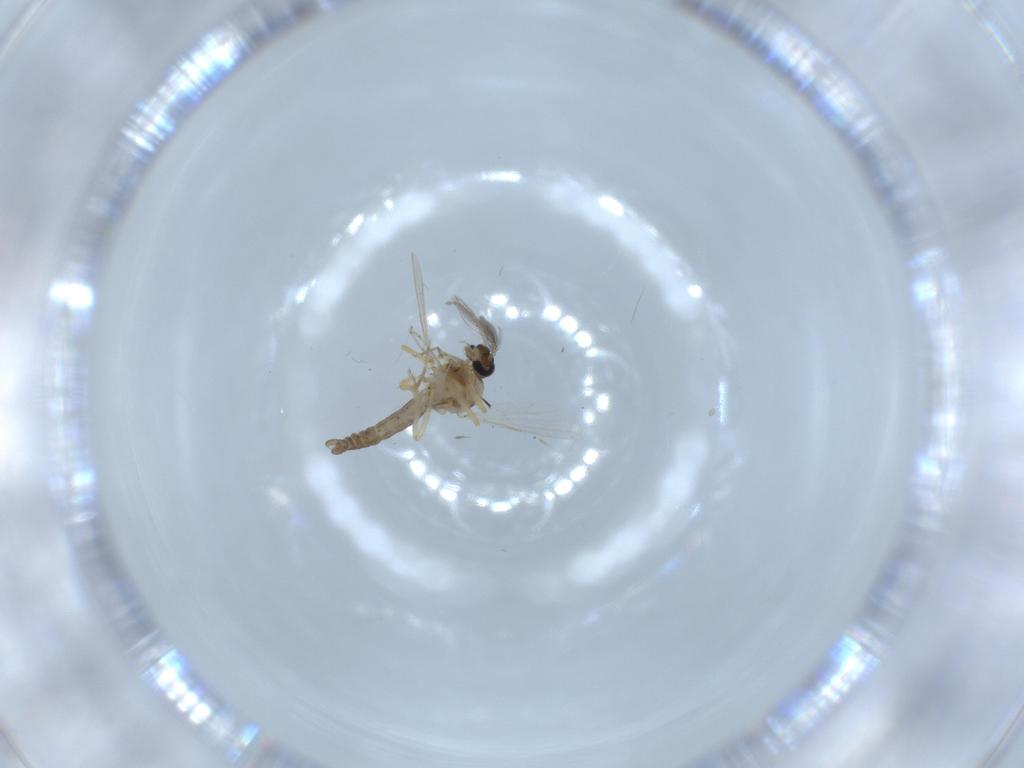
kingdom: Animalia
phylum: Arthropoda
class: Insecta
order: Diptera
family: Ceratopogonidae
